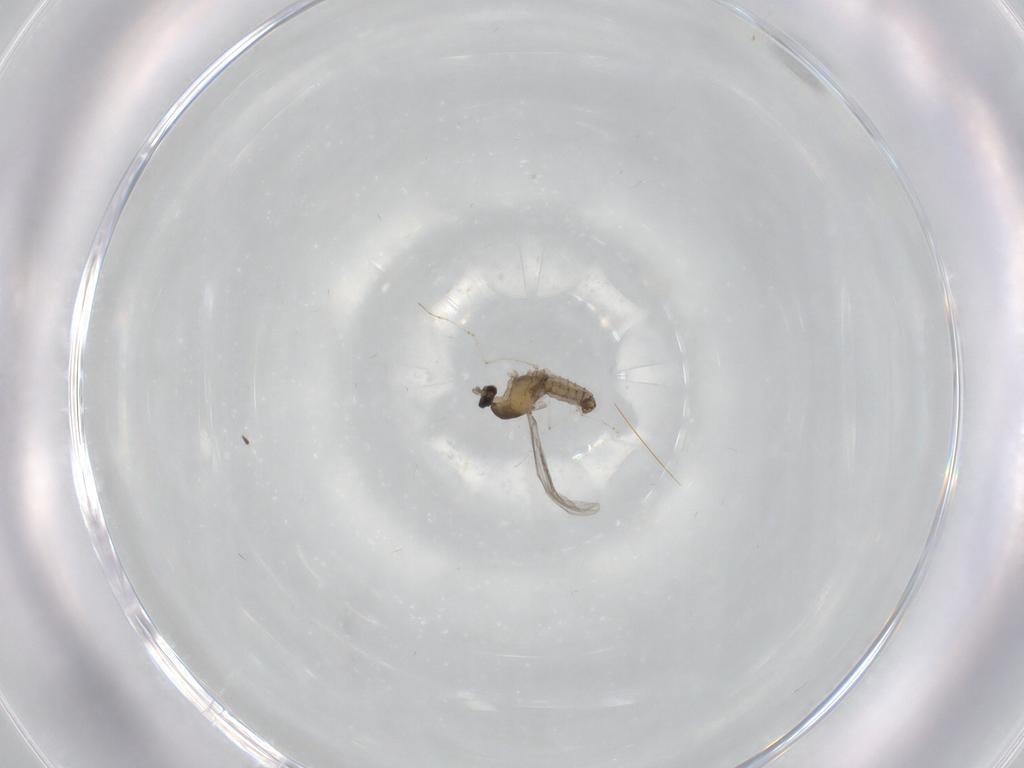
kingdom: Animalia
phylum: Arthropoda
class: Insecta
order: Diptera
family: Cecidomyiidae
